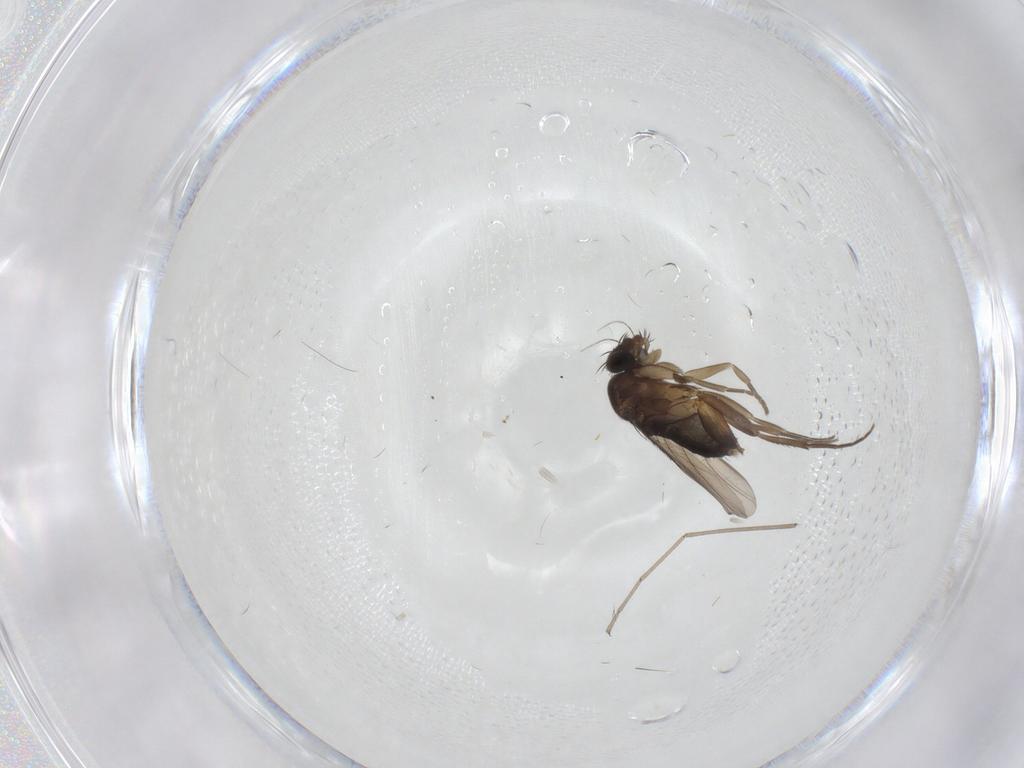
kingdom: Animalia
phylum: Arthropoda
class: Insecta
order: Diptera
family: Phoridae
